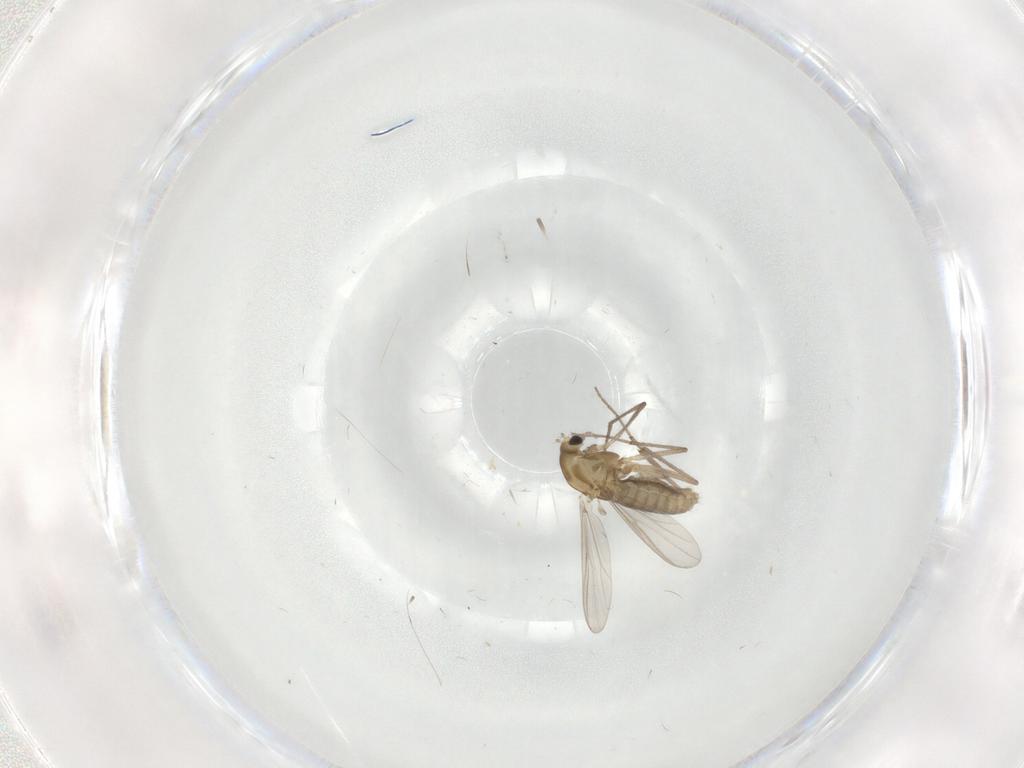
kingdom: Animalia
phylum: Arthropoda
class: Insecta
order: Diptera
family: Chironomidae
